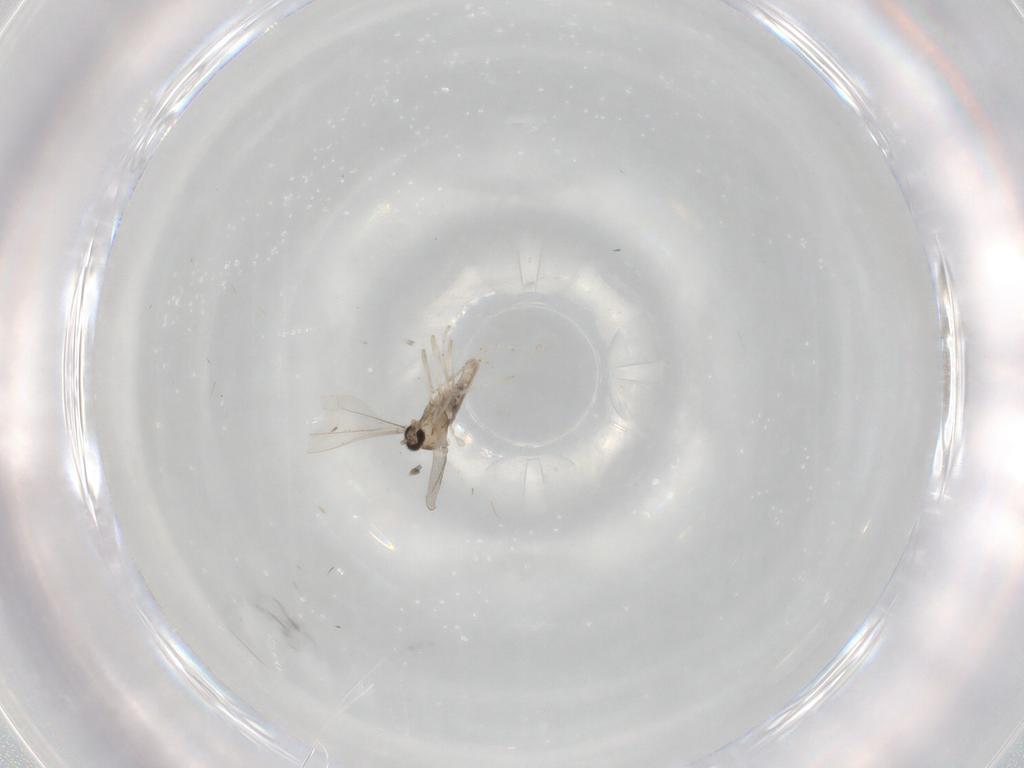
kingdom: Animalia
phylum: Arthropoda
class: Insecta
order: Diptera
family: Cecidomyiidae
